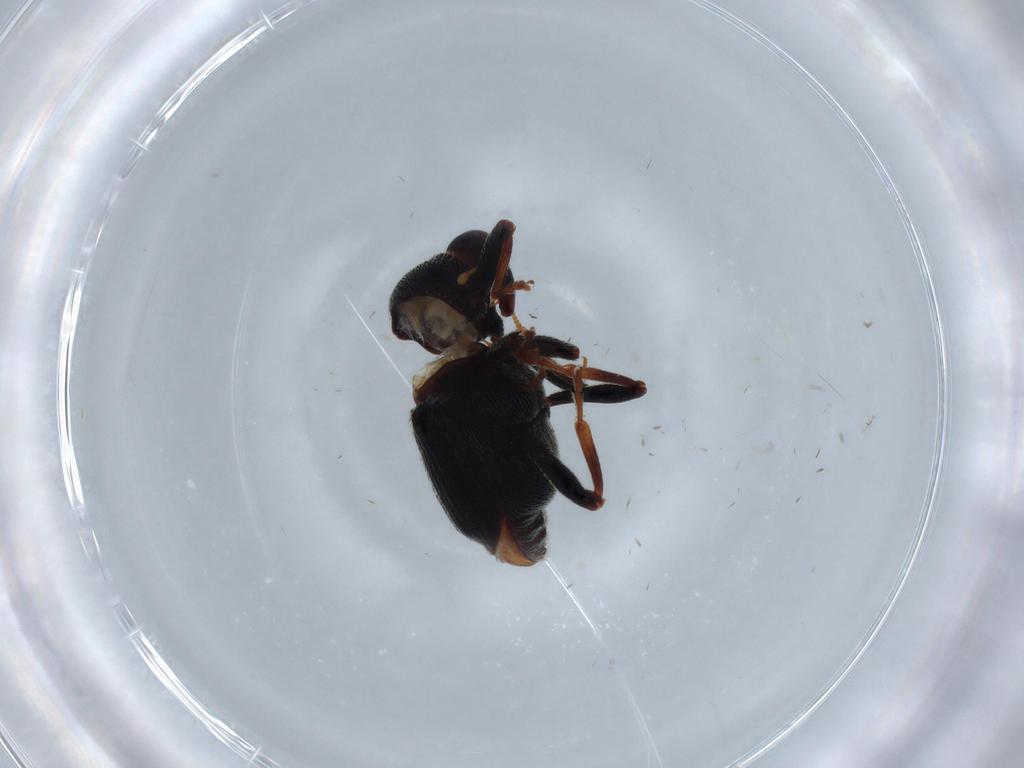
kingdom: Animalia
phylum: Arthropoda
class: Insecta
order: Coleoptera
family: Curculionidae
